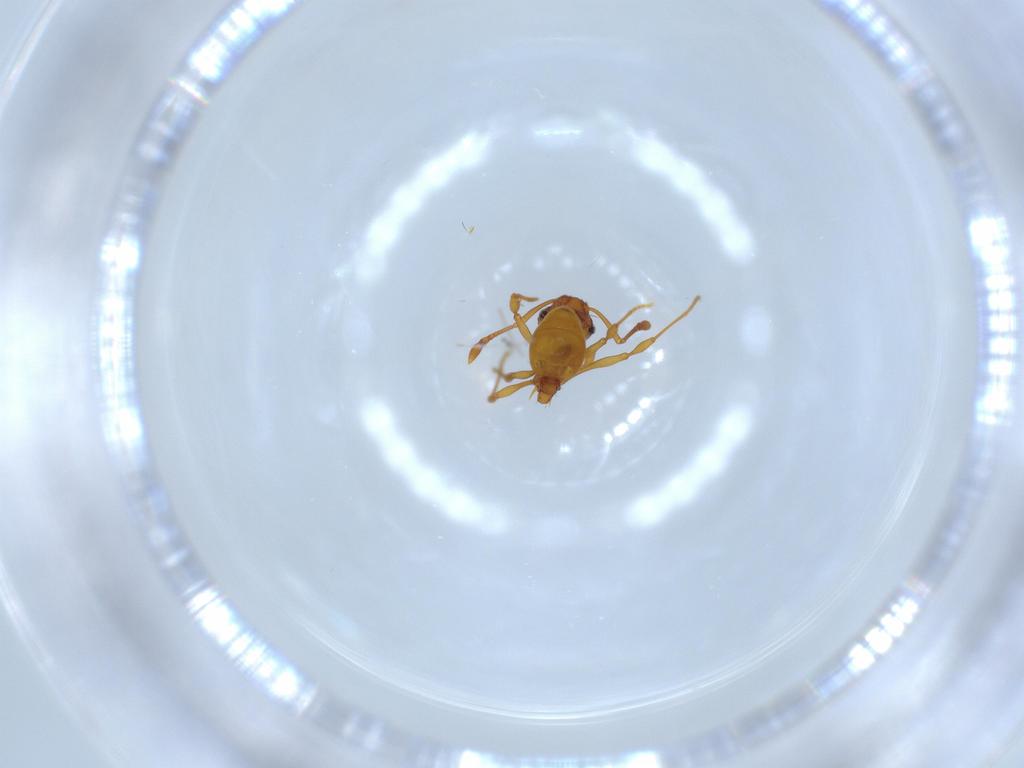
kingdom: Animalia
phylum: Arthropoda
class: Insecta
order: Hymenoptera
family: Formicidae
